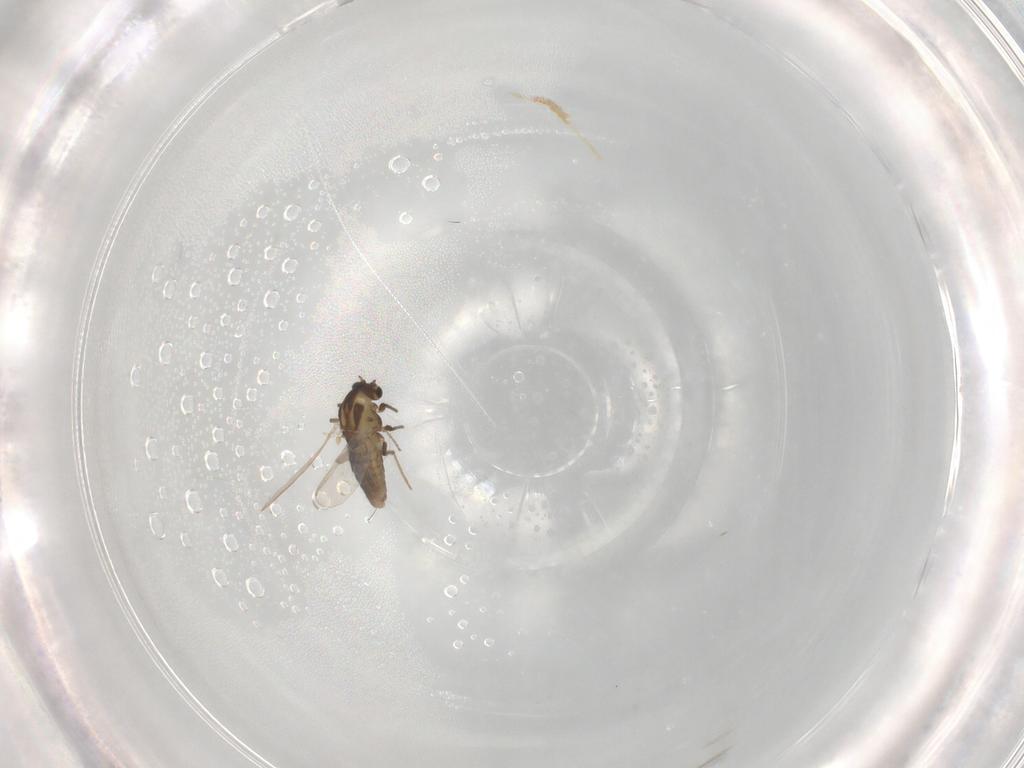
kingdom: Animalia
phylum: Arthropoda
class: Insecta
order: Diptera
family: Chironomidae
